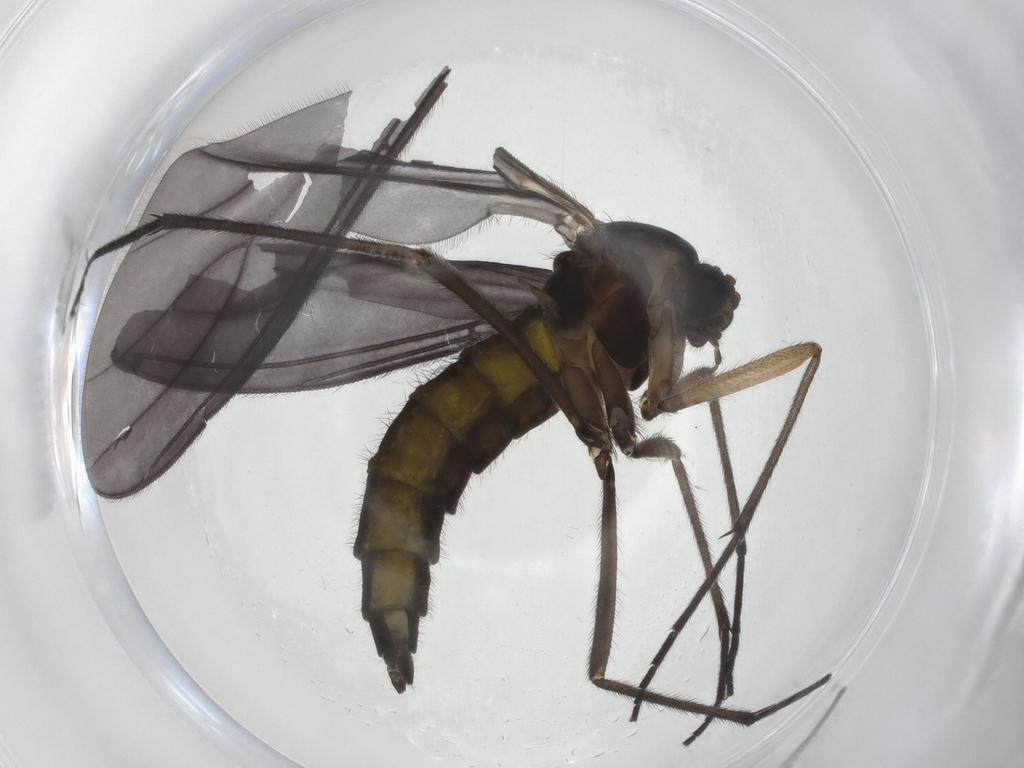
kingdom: Animalia
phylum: Arthropoda
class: Insecta
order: Diptera
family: Sciaridae
